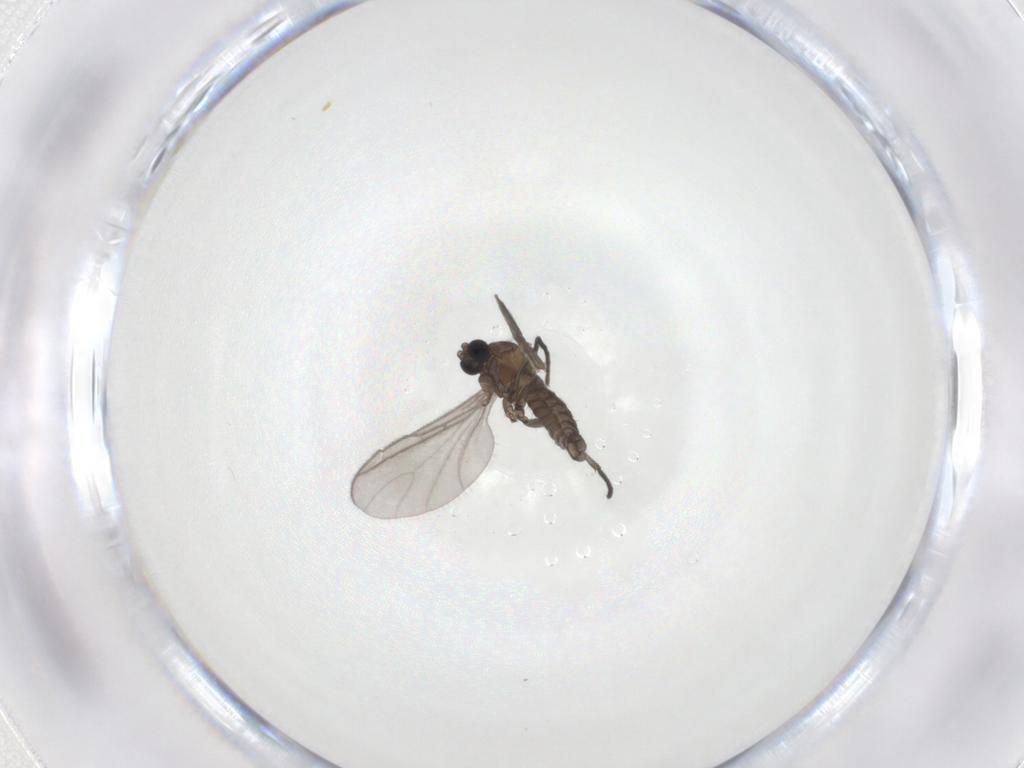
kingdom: Animalia
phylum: Arthropoda
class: Insecta
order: Diptera
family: Sciaridae
